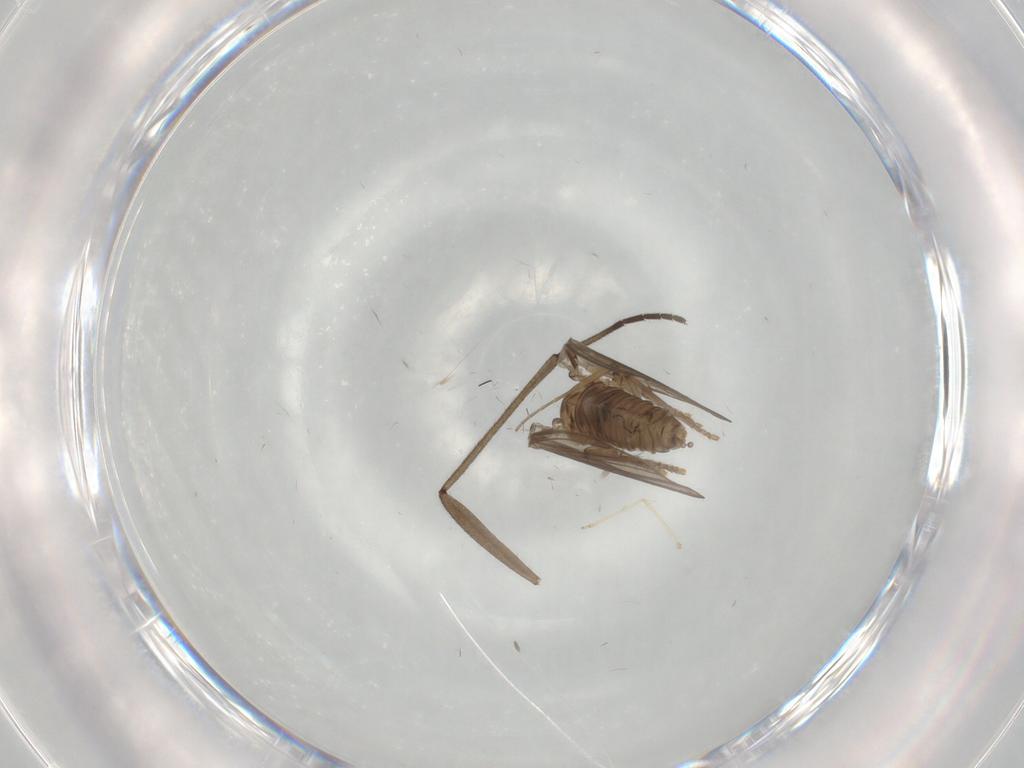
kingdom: Animalia
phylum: Arthropoda
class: Insecta
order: Diptera
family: Psychodidae
